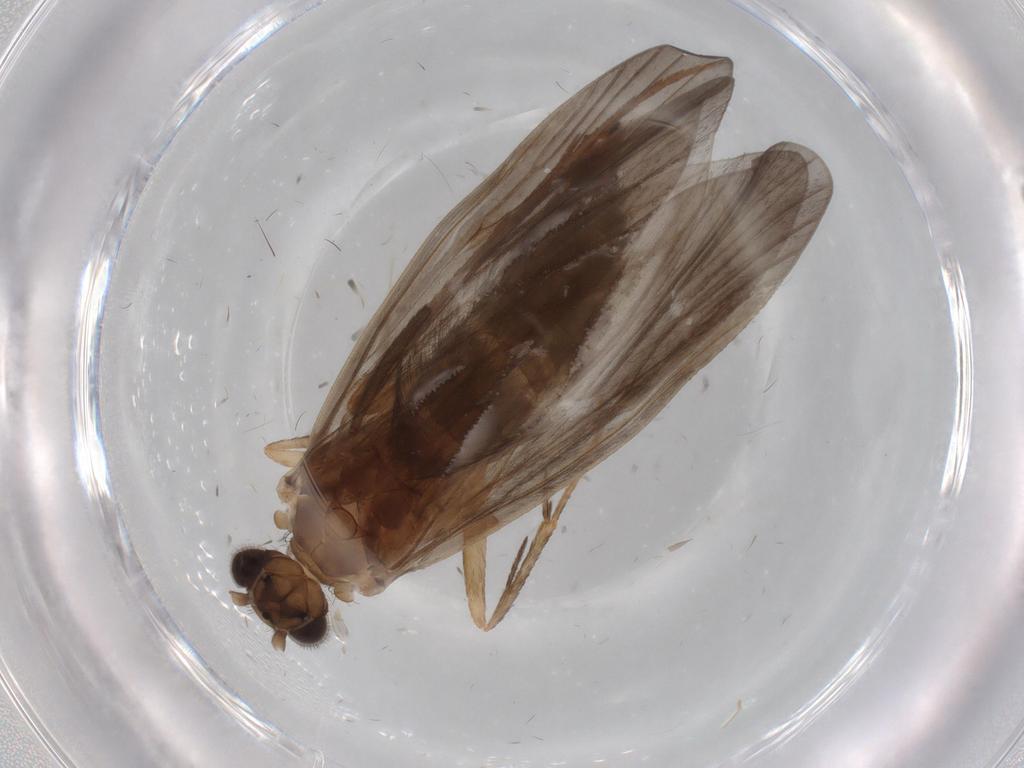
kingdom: Animalia
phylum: Arthropoda
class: Insecta
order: Trichoptera
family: Philopotamidae
